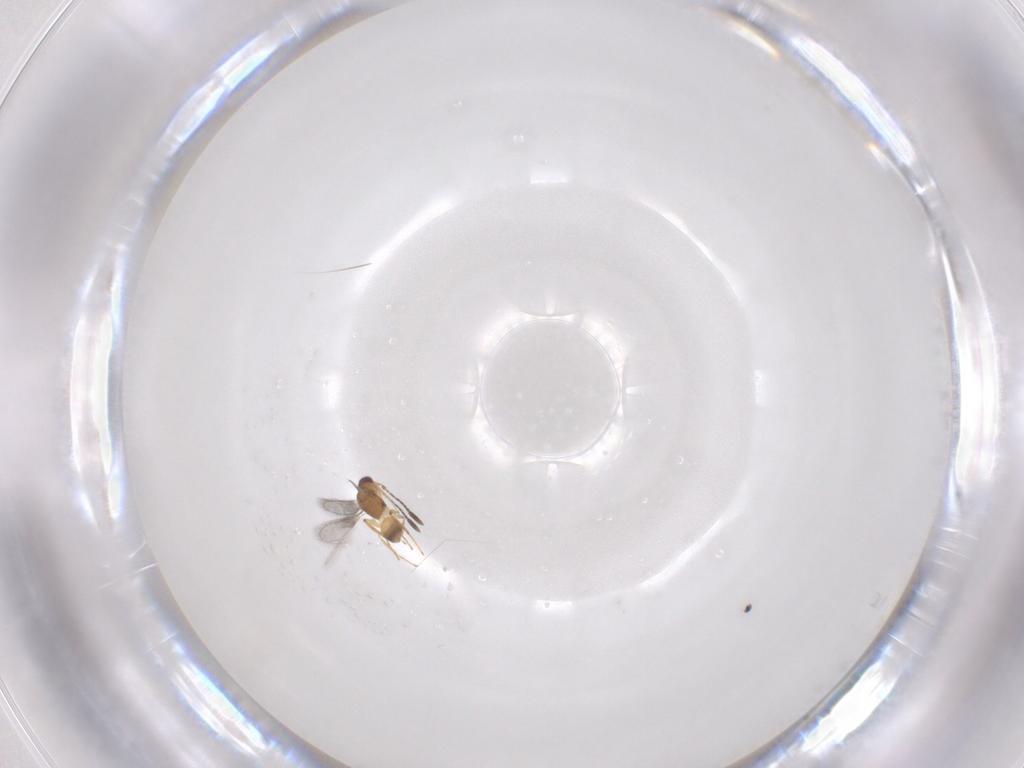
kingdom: Animalia
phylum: Arthropoda
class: Insecta
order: Hymenoptera
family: Mymaridae
